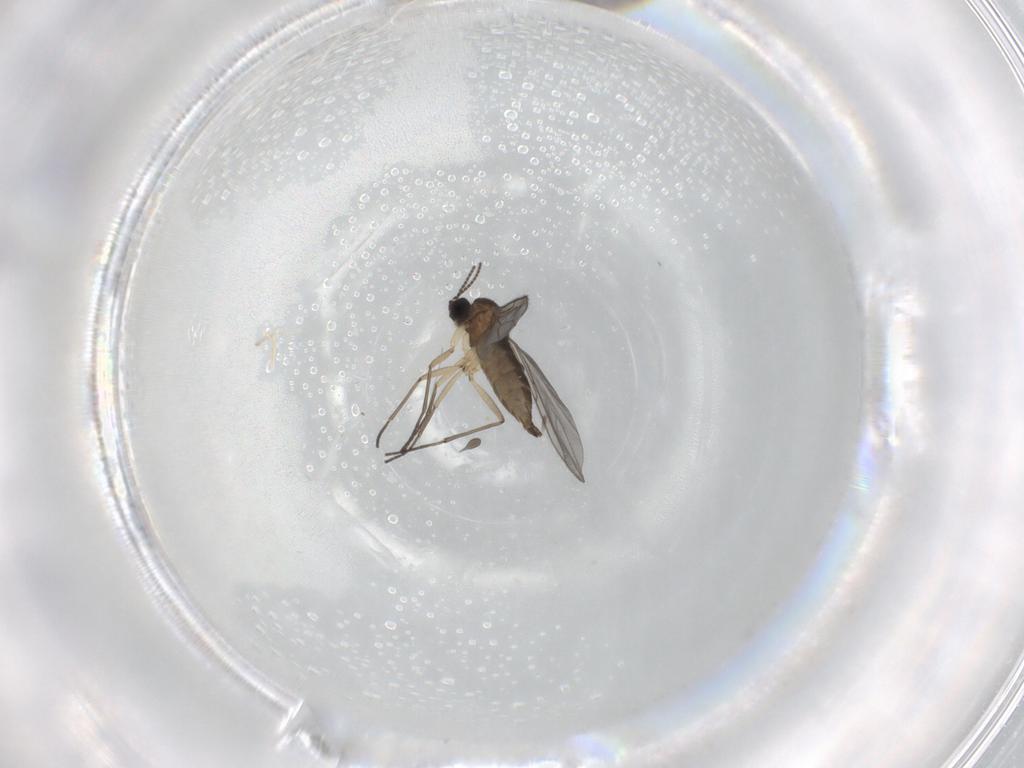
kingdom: Animalia
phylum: Arthropoda
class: Insecta
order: Diptera
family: Sciaridae
